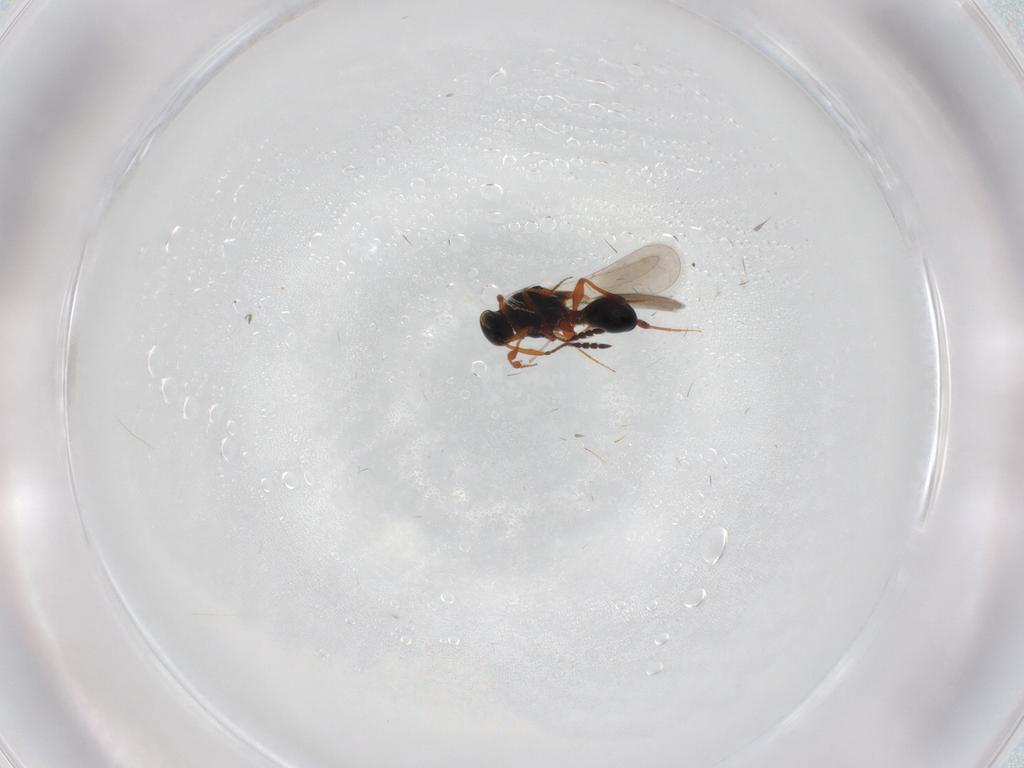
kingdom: Animalia
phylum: Arthropoda
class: Insecta
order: Hymenoptera
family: Platygastridae
